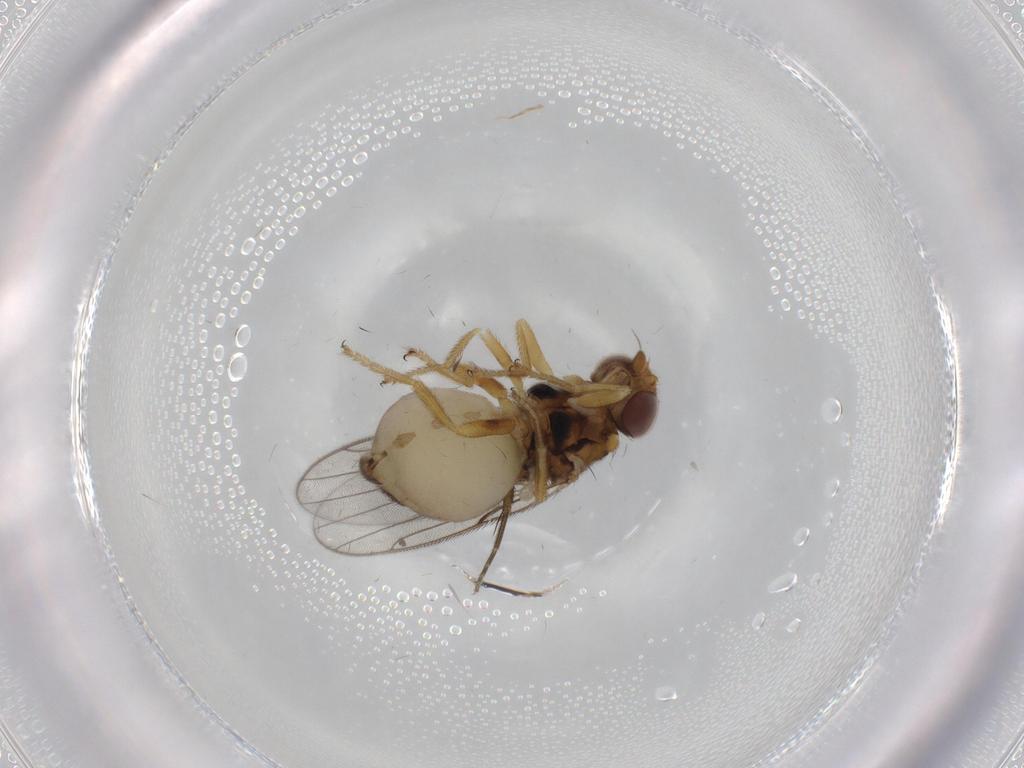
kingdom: Animalia
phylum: Arthropoda
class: Insecta
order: Diptera
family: Chloropidae
